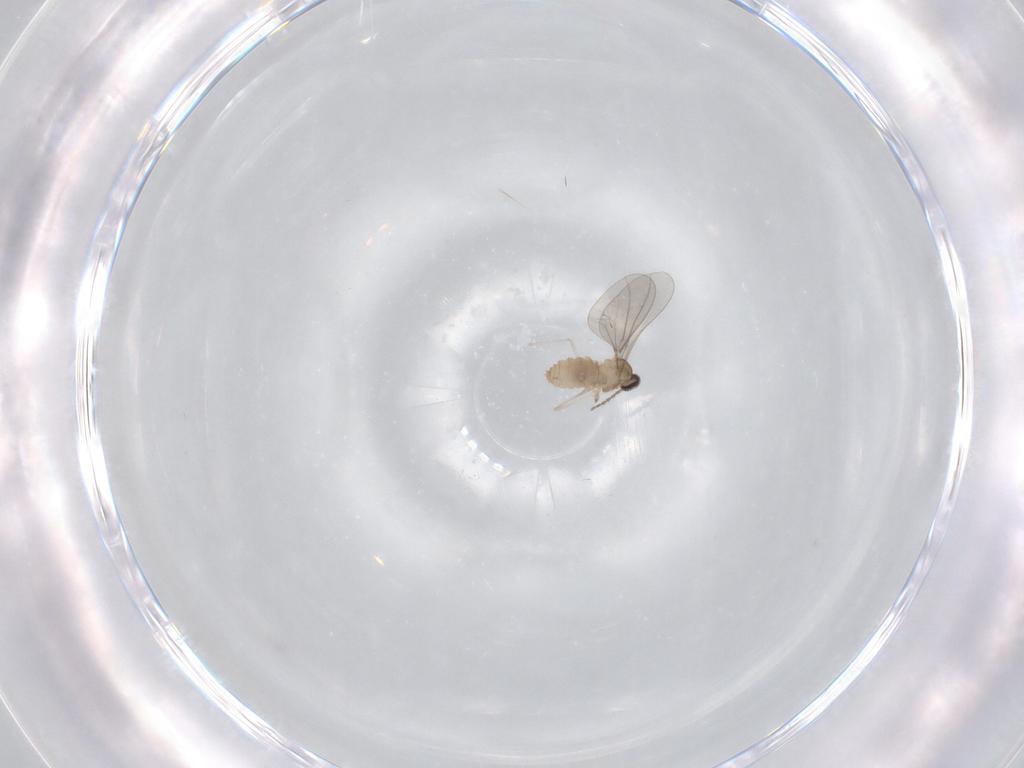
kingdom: Animalia
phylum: Arthropoda
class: Insecta
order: Diptera
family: Cecidomyiidae
